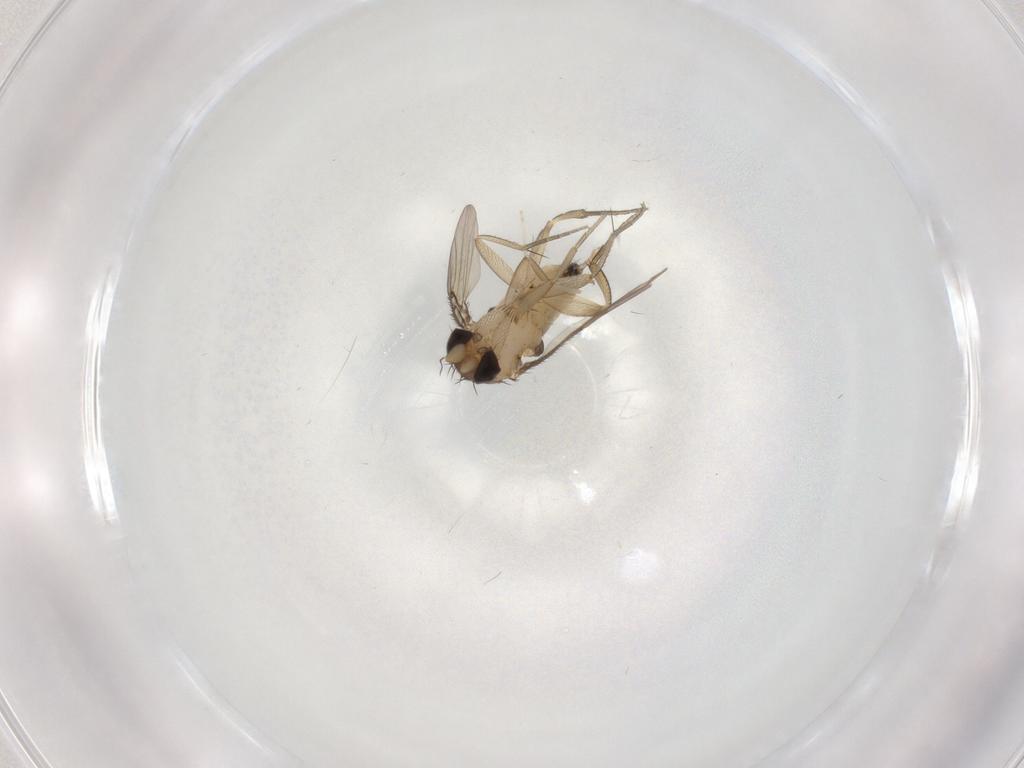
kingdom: Animalia
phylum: Arthropoda
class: Insecta
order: Diptera
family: Phoridae
